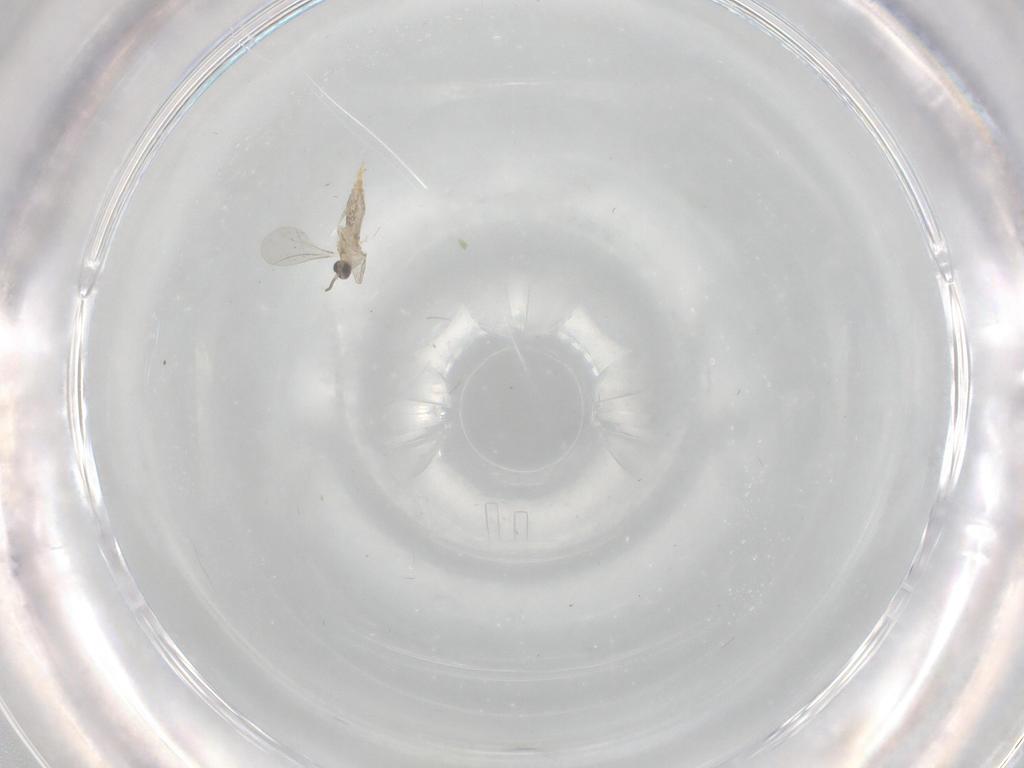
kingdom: Animalia
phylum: Arthropoda
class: Insecta
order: Diptera
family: Cecidomyiidae
